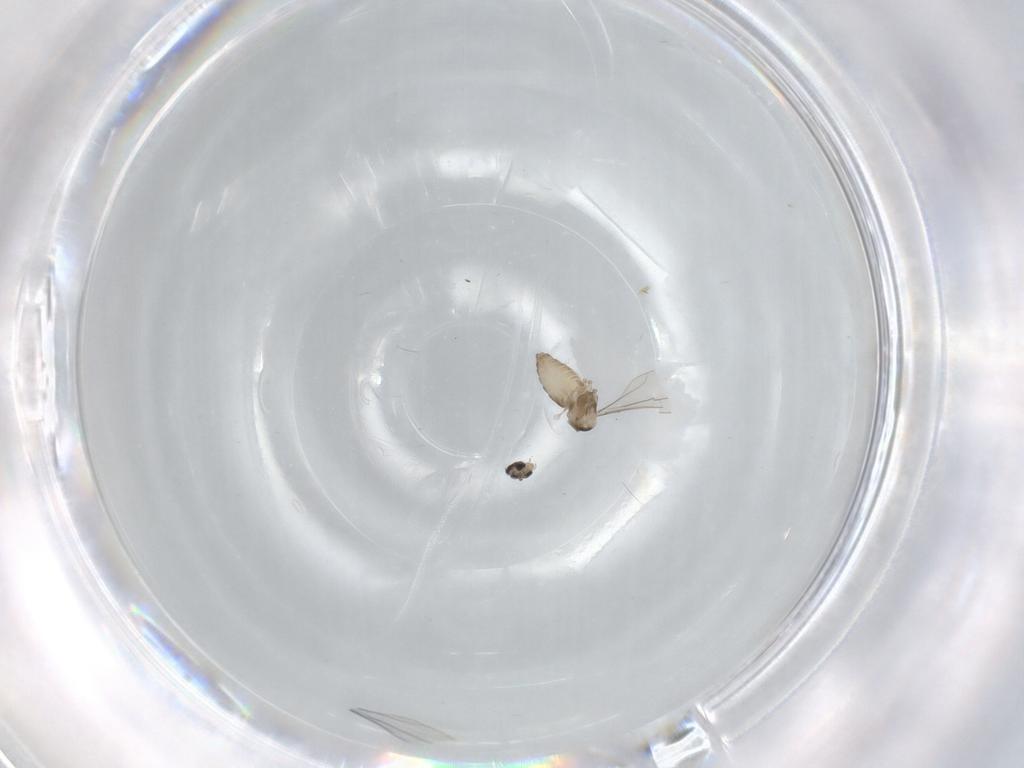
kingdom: Animalia
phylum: Arthropoda
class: Insecta
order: Diptera
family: Cecidomyiidae
